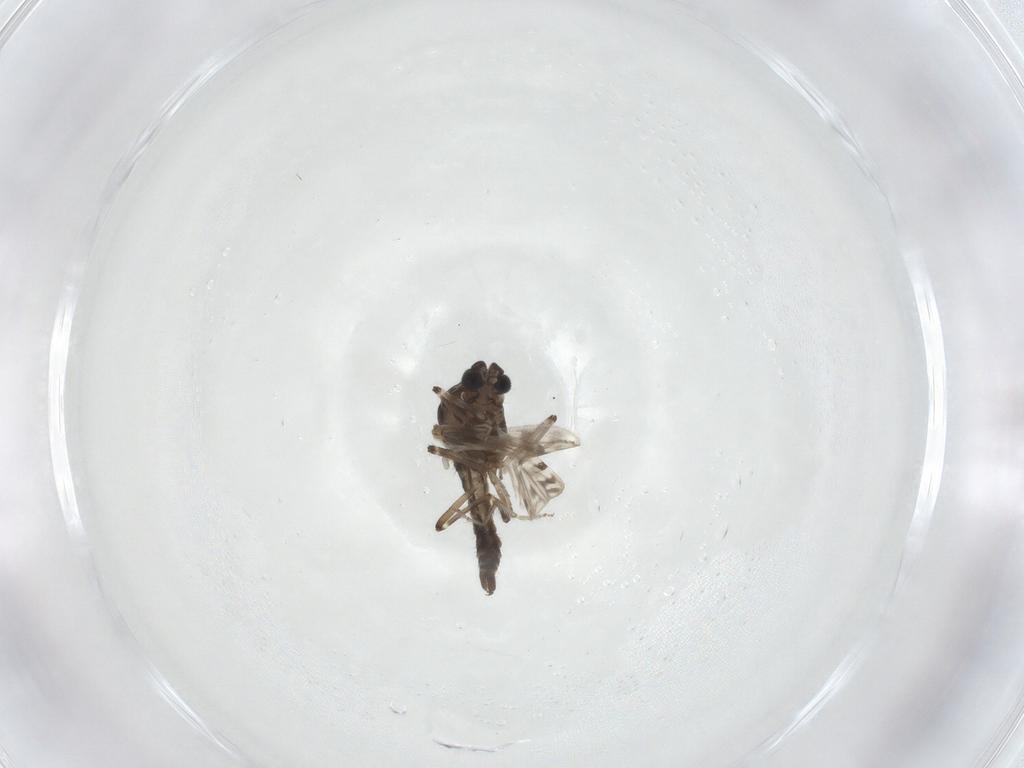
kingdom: Animalia
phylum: Arthropoda
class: Insecta
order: Diptera
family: Ceratopogonidae
